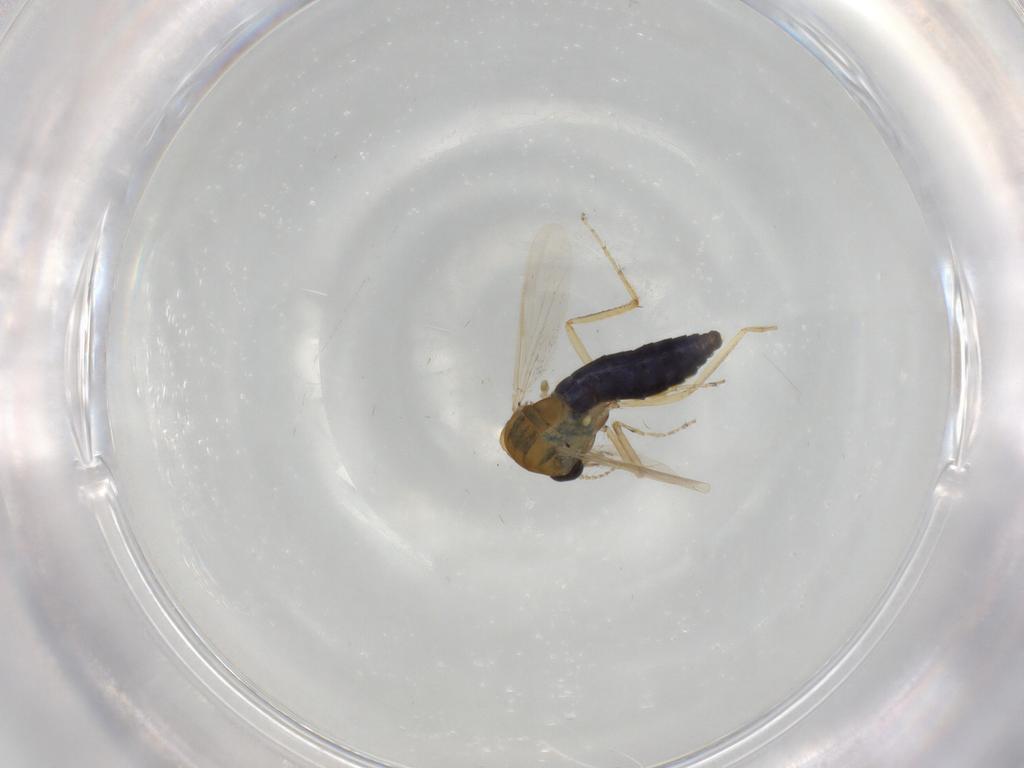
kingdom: Animalia
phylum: Arthropoda
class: Insecta
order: Diptera
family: Ceratopogonidae
